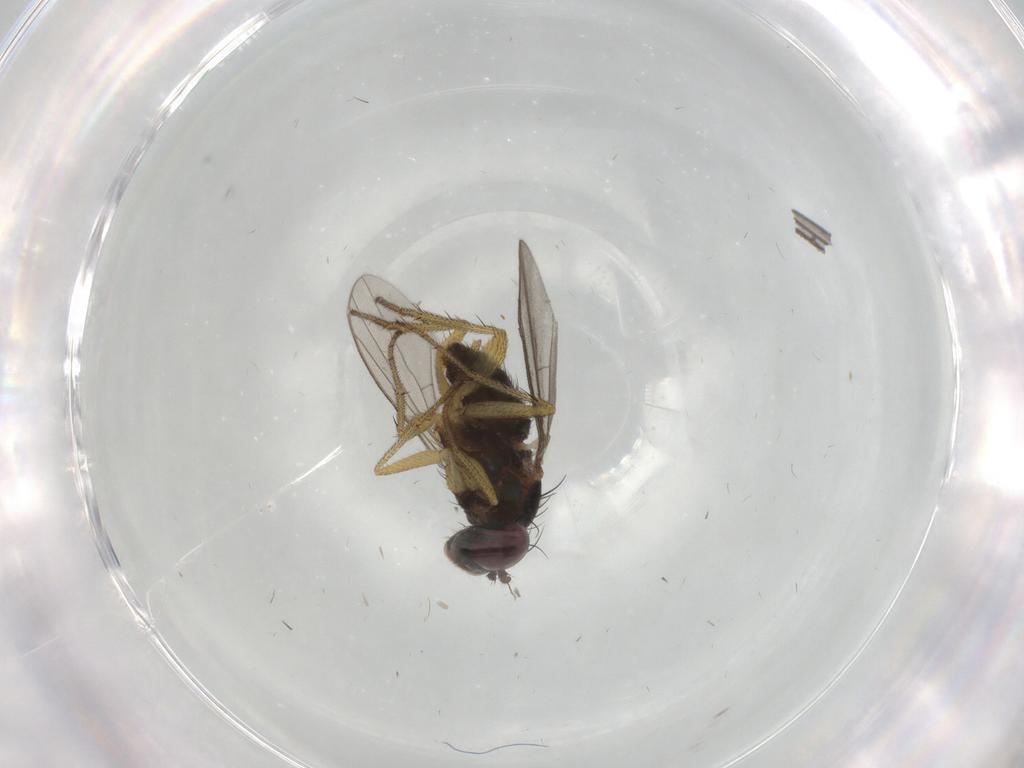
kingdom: Animalia
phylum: Arthropoda
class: Insecta
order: Diptera
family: Dolichopodidae
